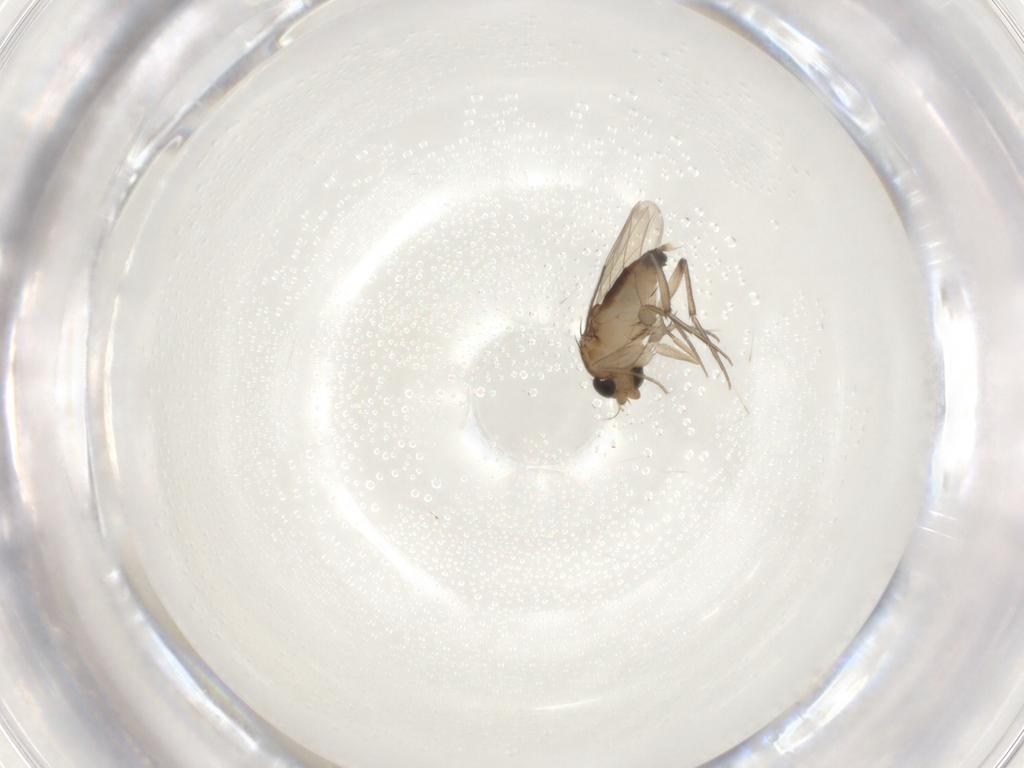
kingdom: Animalia
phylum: Arthropoda
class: Insecta
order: Diptera
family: Phoridae
